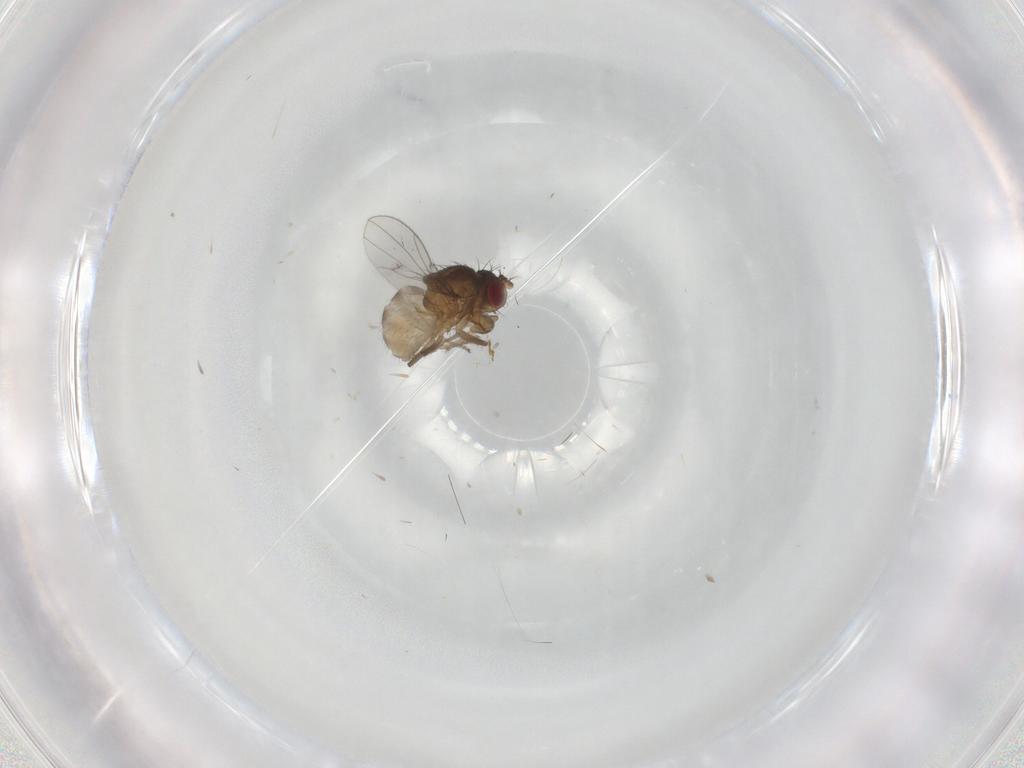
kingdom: Animalia
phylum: Arthropoda
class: Insecta
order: Diptera
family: Ephydridae
